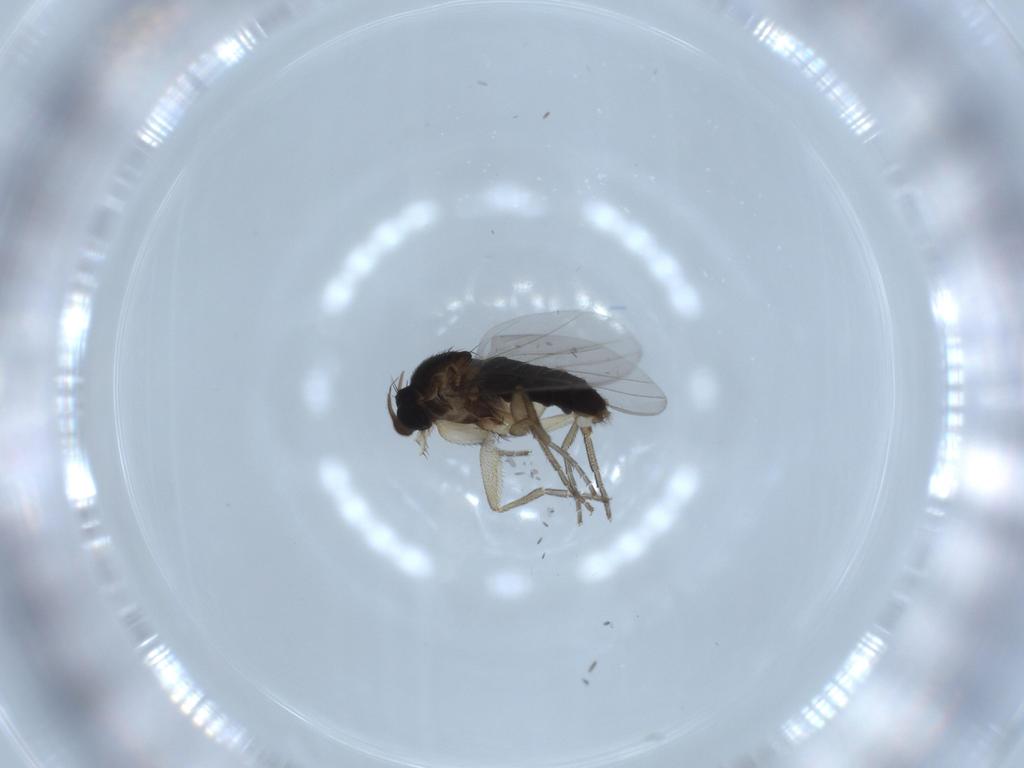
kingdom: Animalia
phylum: Arthropoda
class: Insecta
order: Diptera
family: Phoridae
